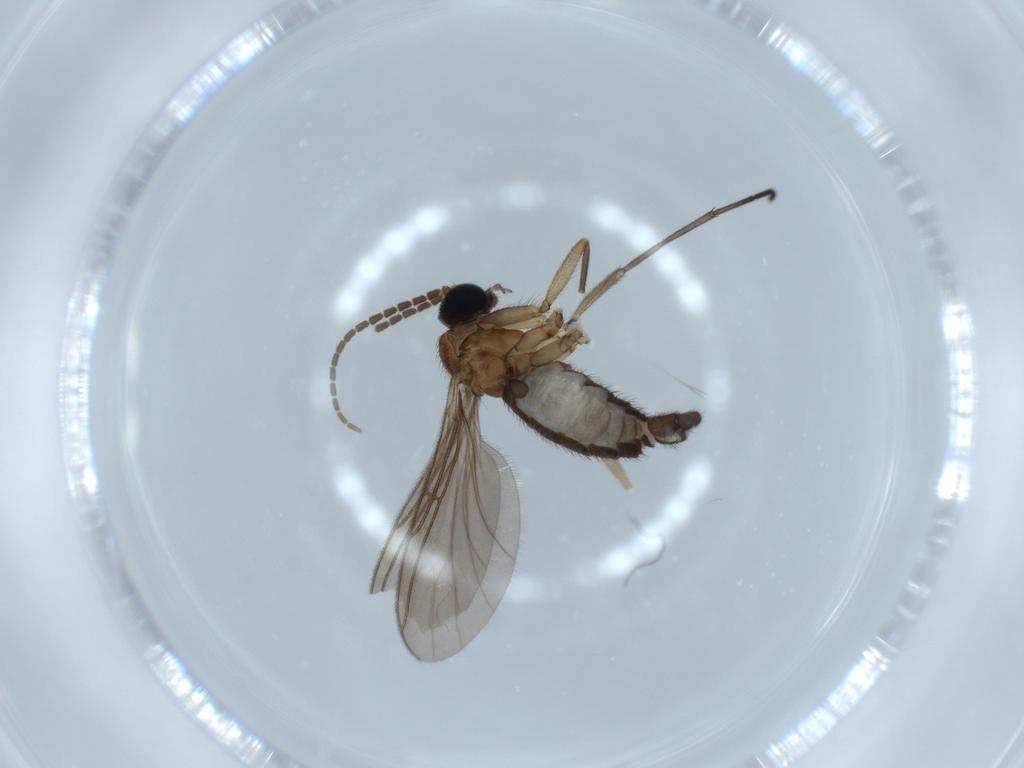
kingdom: Animalia
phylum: Arthropoda
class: Insecta
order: Diptera
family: Sciaridae
